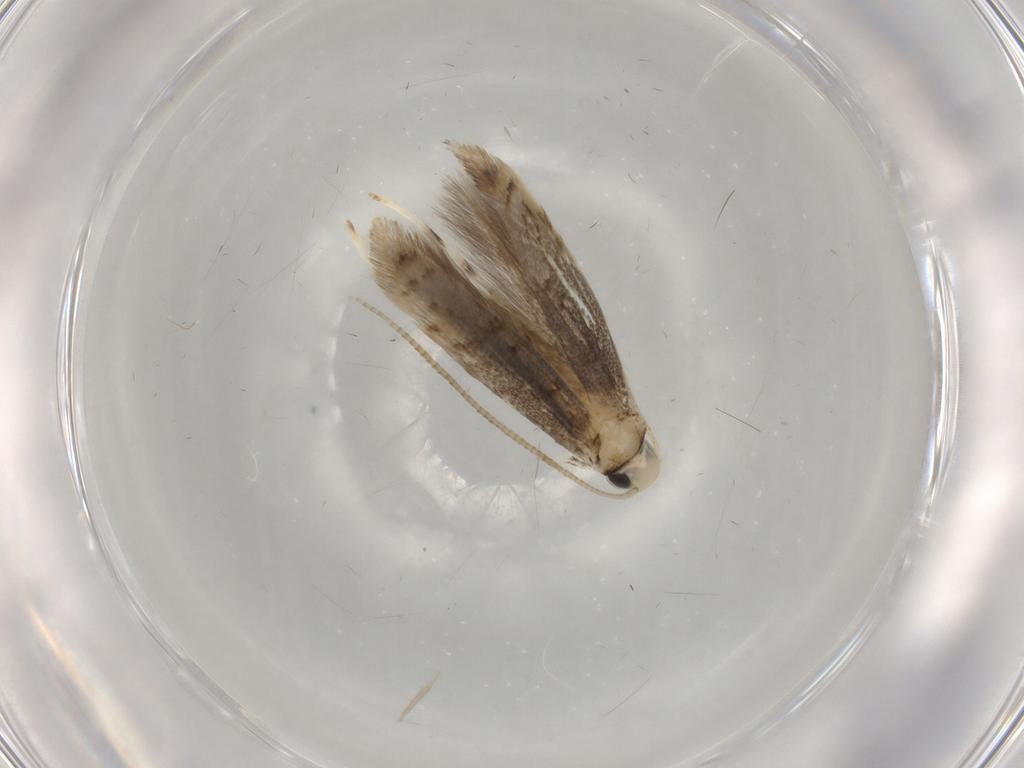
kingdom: Animalia
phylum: Arthropoda
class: Insecta
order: Lepidoptera
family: Gracillariidae
